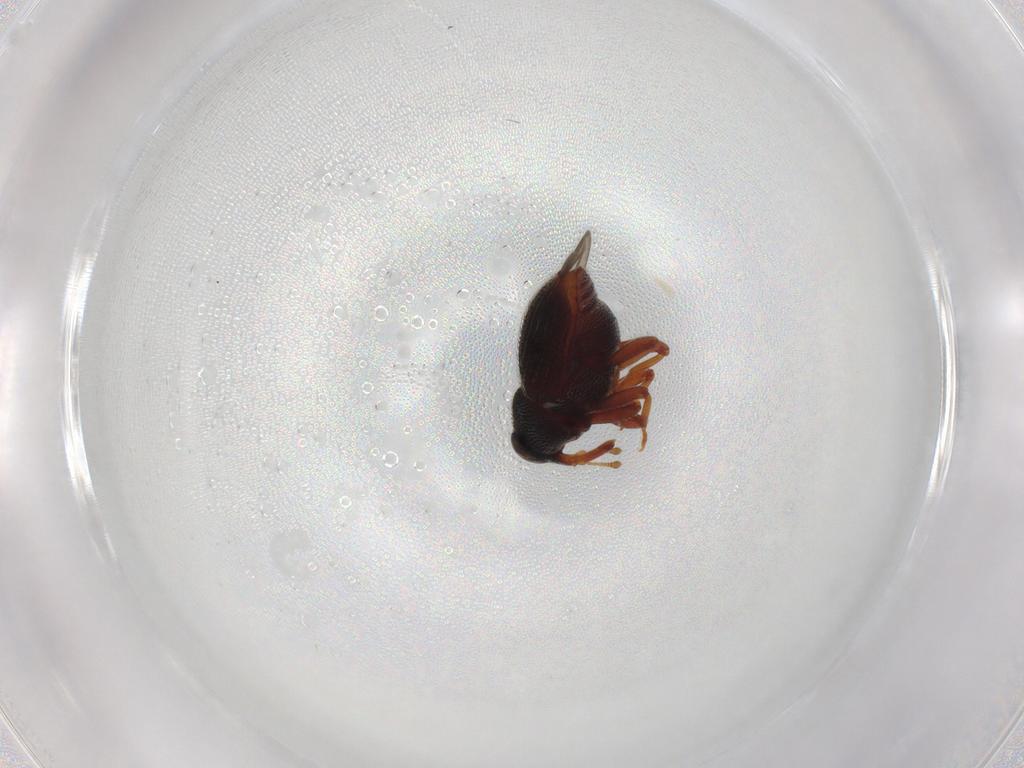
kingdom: Animalia
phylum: Arthropoda
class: Insecta
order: Coleoptera
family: Curculionidae
